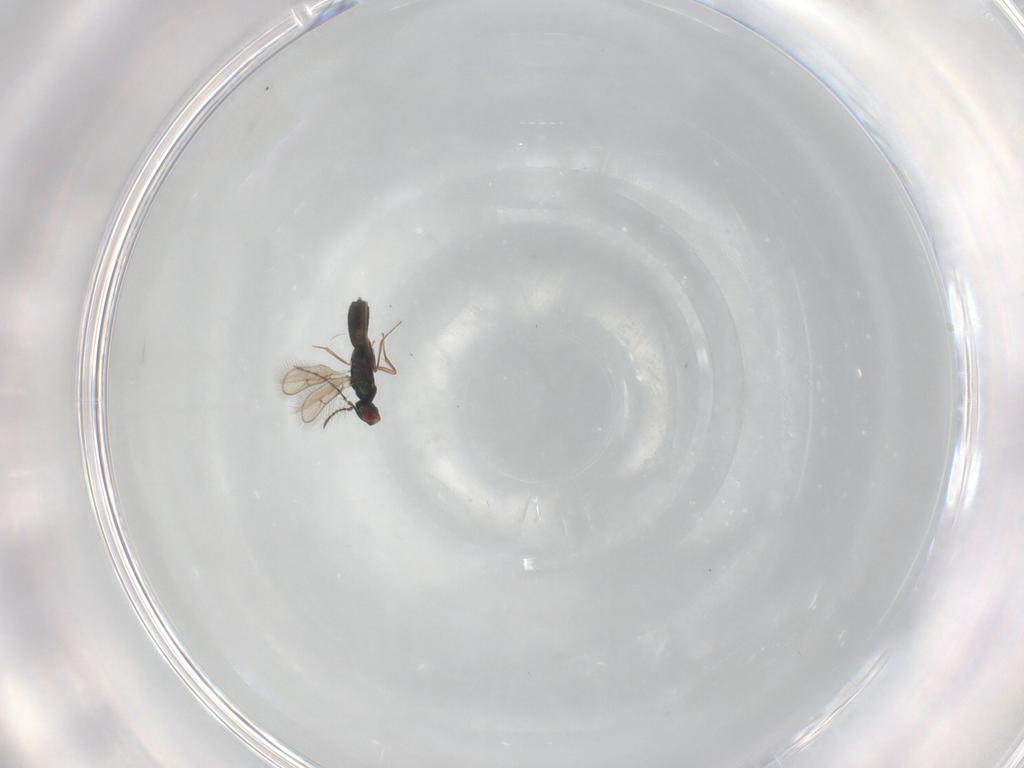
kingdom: Animalia
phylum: Arthropoda
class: Insecta
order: Hymenoptera
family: Pteromalidae
